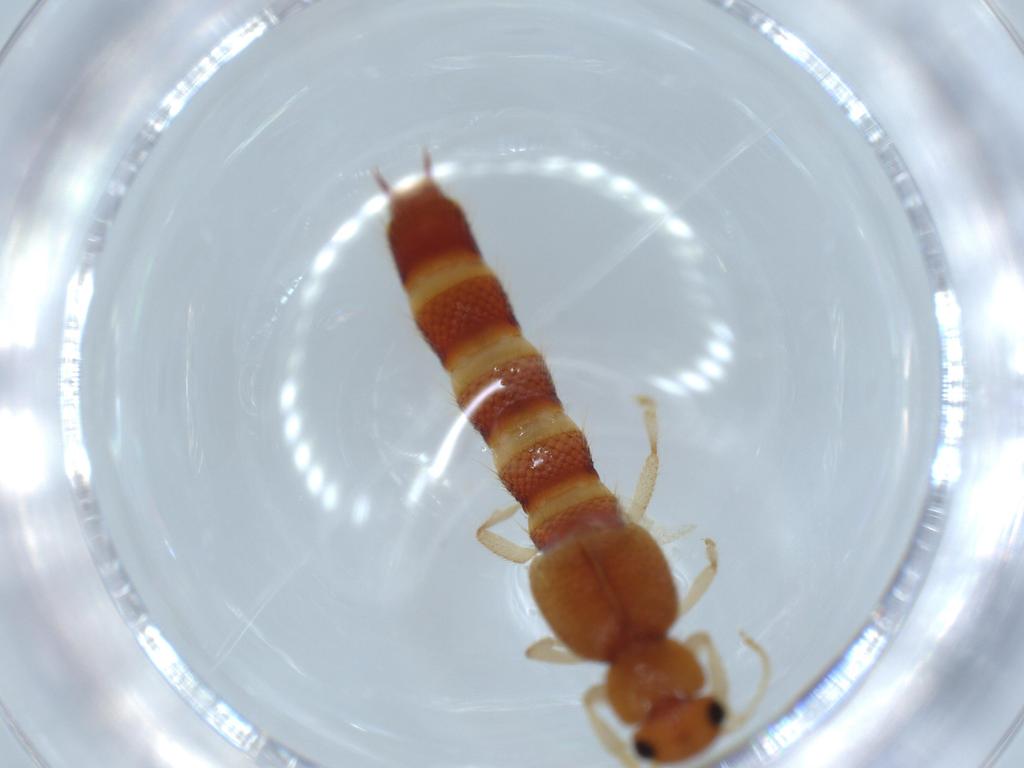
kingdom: Animalia
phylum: Arthropoda
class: Insecta
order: Coleoptera
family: Staphylinidae
